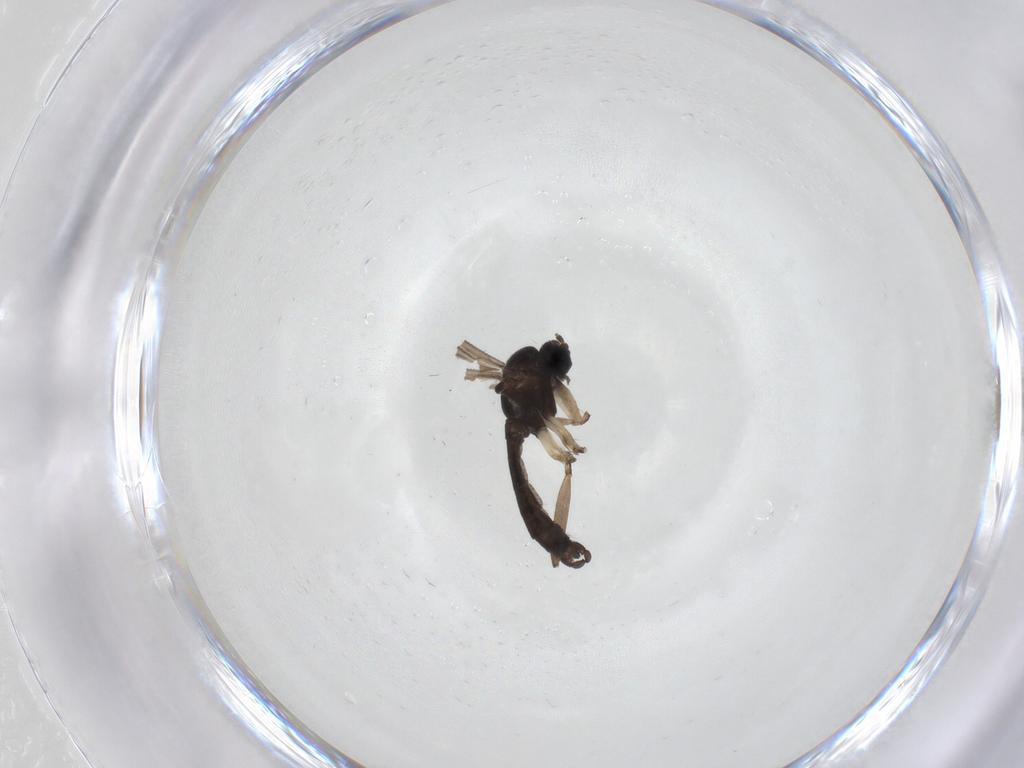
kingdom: Animalia
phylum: Arthropoda
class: Insecta
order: Diptera
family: Sciaridae
